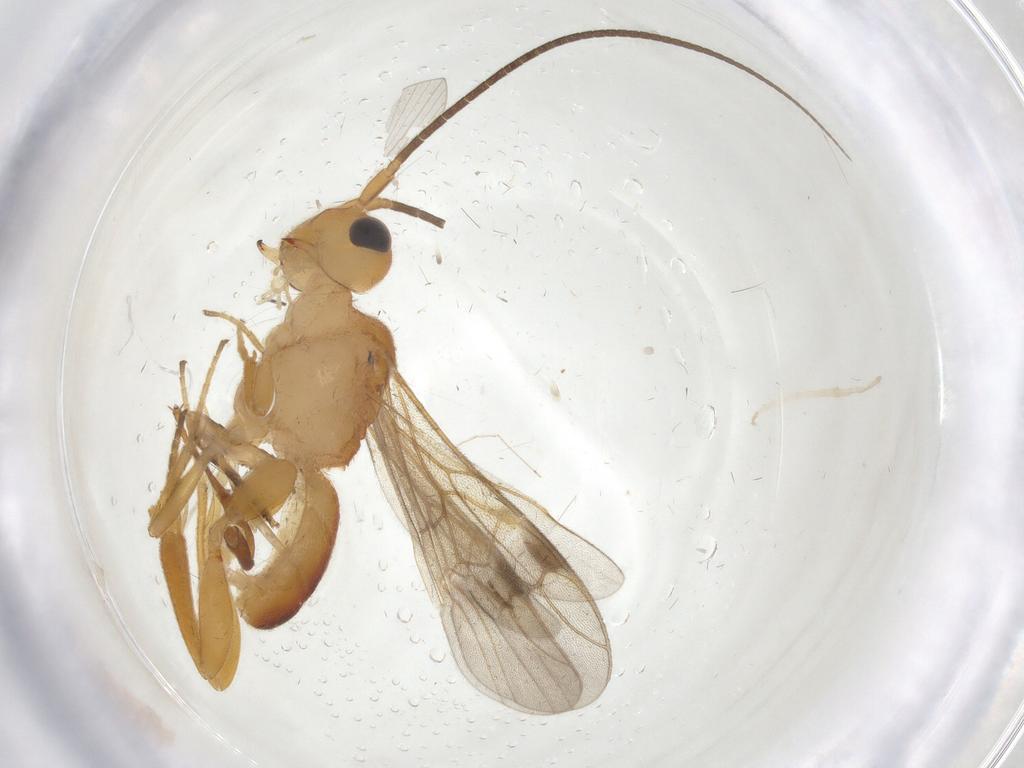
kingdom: Animalia
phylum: Arthropoda
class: Insecta
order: Hymenoptera
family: Braconidae
